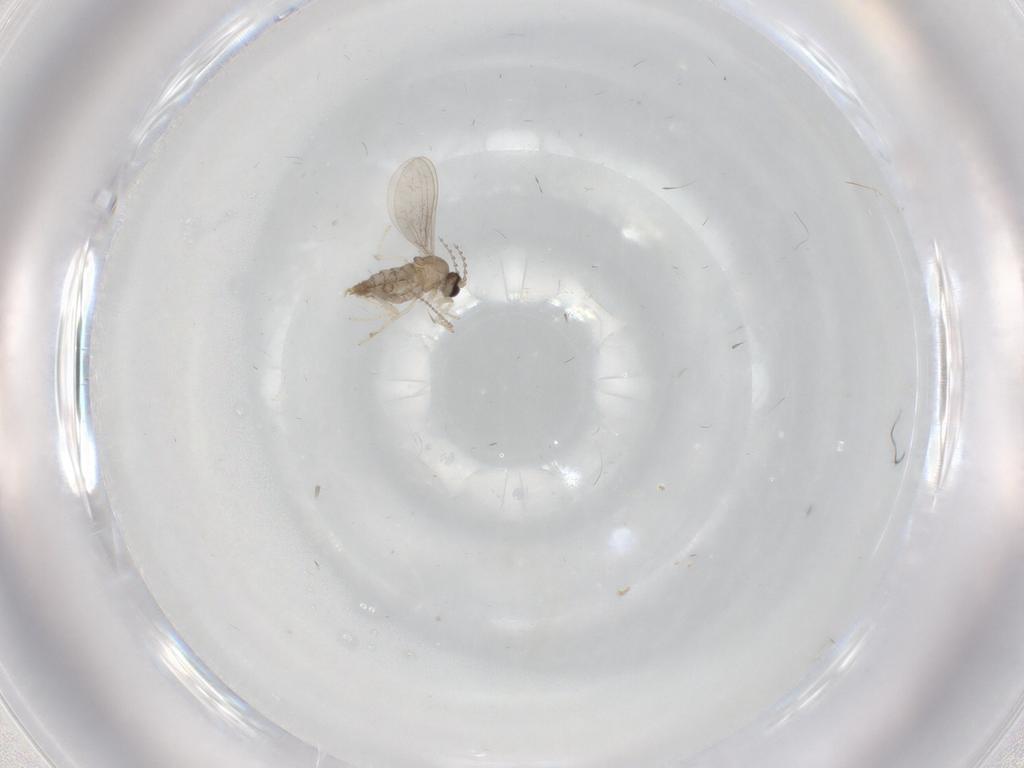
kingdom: Animalia
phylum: Arthropoda
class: Insecta
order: Diptera
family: Cecidomyiidae
